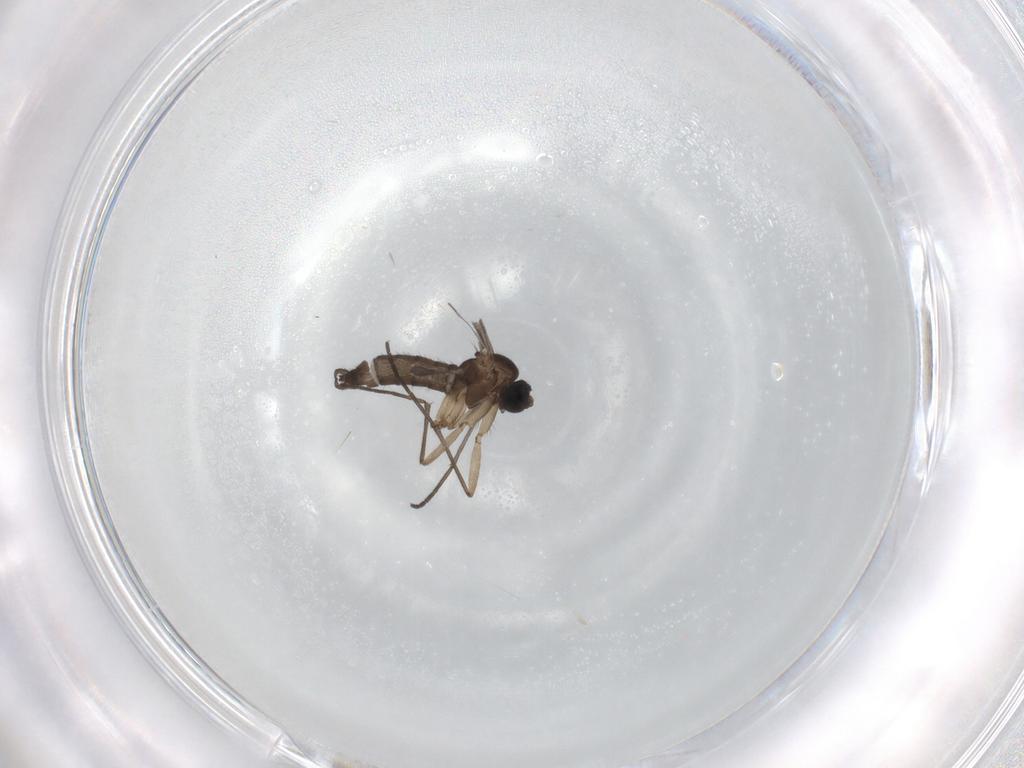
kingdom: Animalia
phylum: Arthropoda
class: Insecta
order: Diptera
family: Sciaridae
